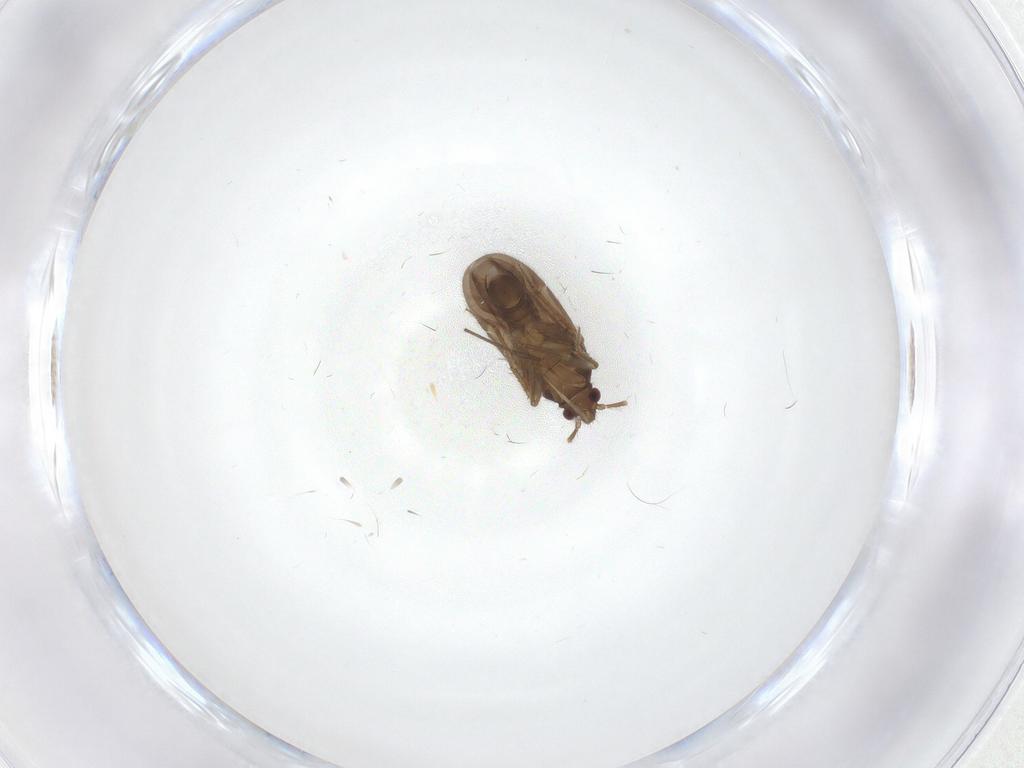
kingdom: Animalia
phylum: Arthropoda
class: Insecta
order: Hemiptera
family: Ceratocombidae
